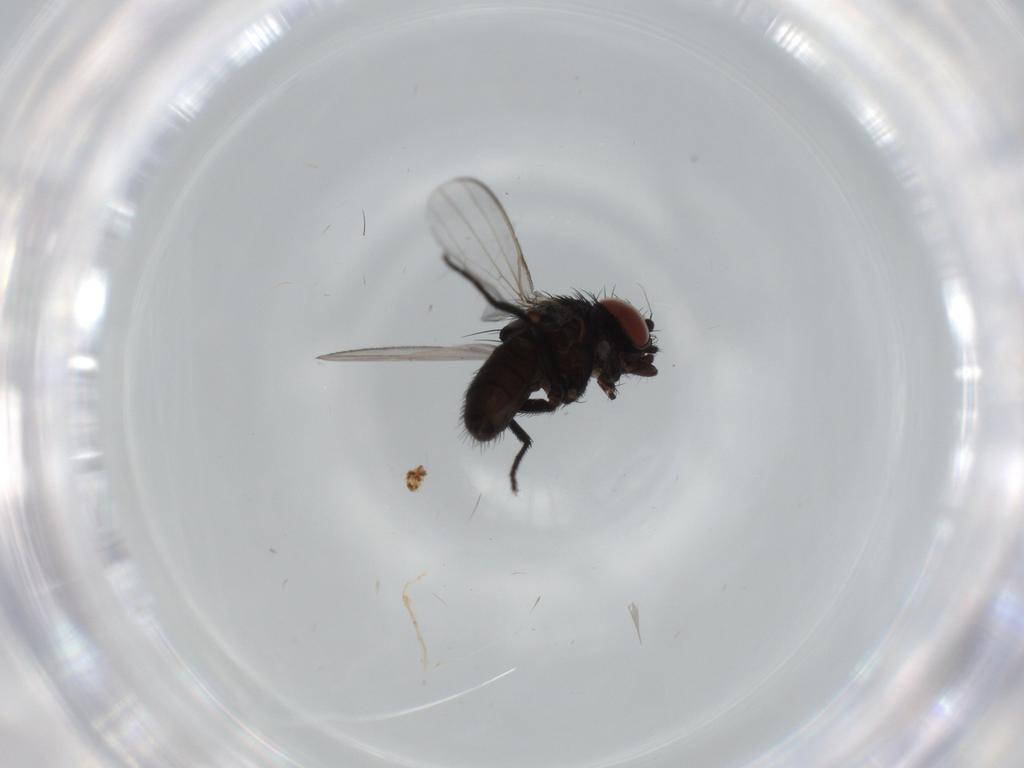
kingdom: Animalia
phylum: Arthropoda
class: Insecta
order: Diptera
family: Milichiidae
